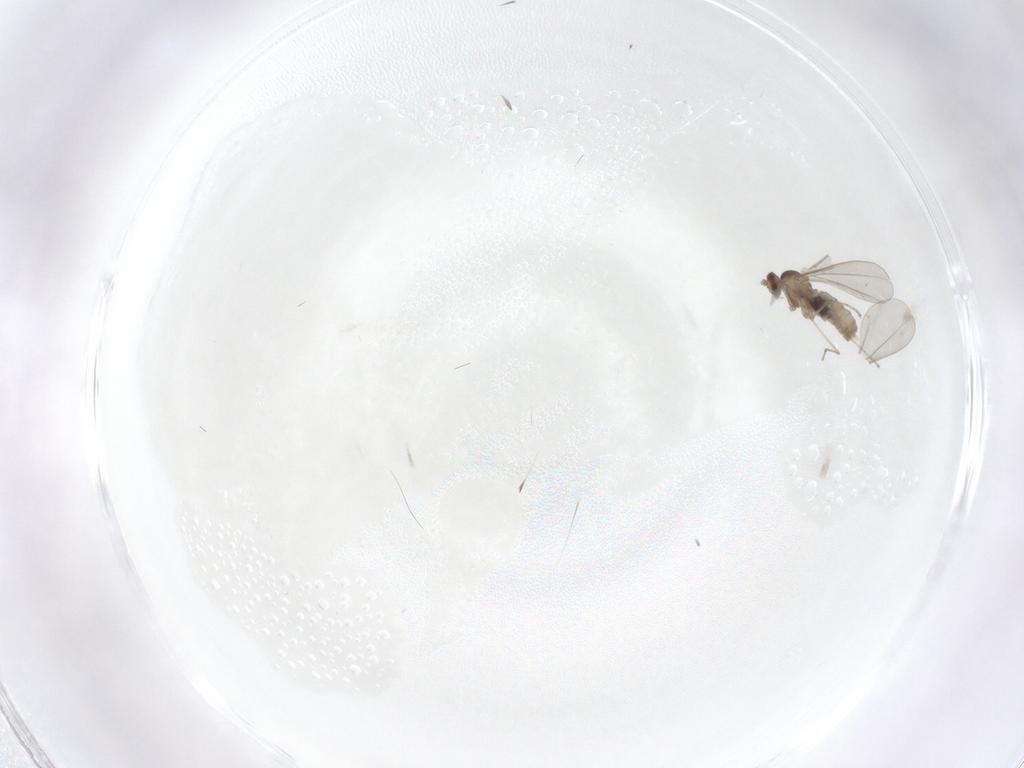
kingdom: Animalia
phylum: Arthropoda
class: Insecta
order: Diptera
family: Cecidomyiidae
